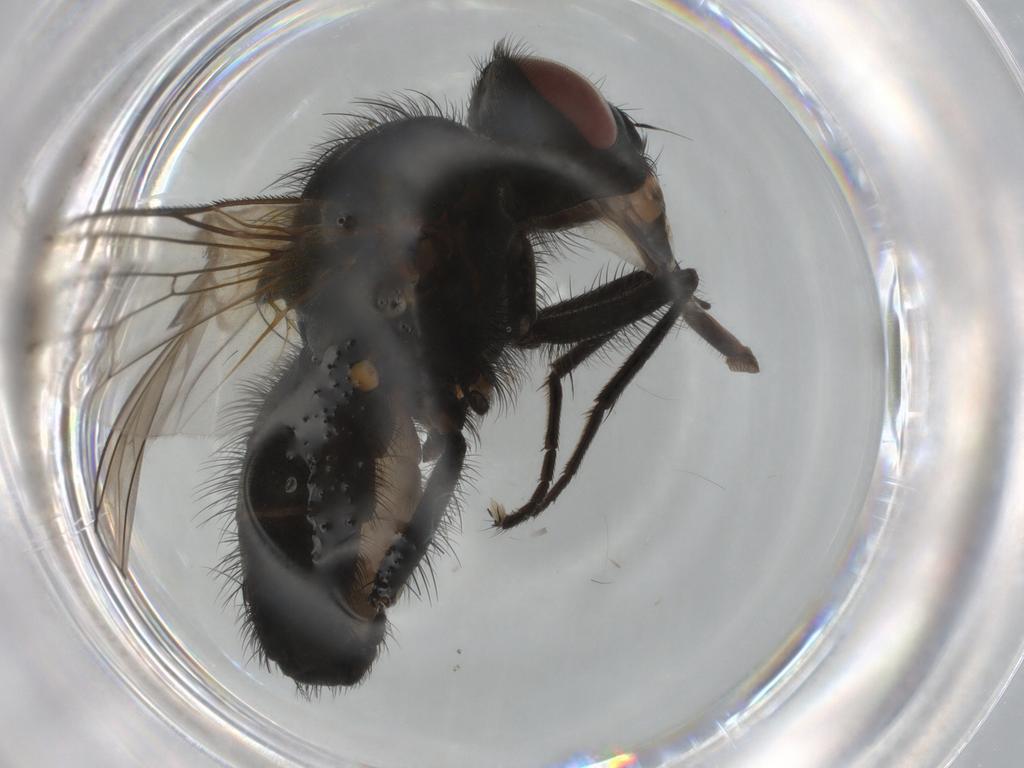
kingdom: Animalia
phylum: Arthropoda
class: Insecta
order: Diptera
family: Anthomyiidae
